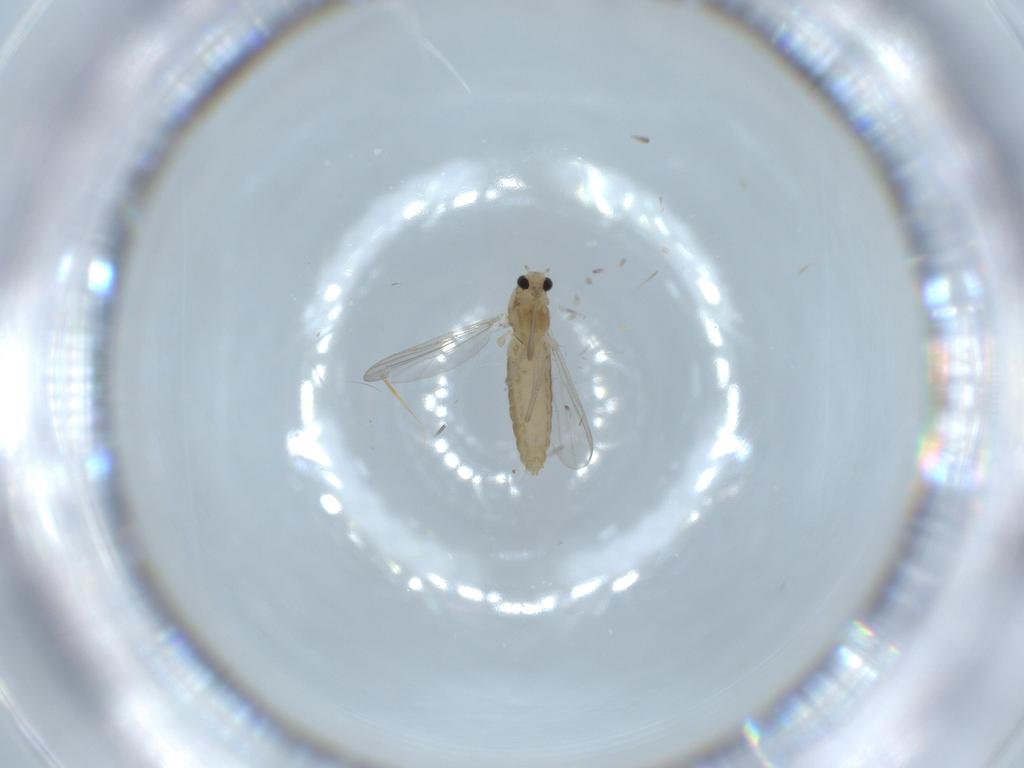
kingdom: Animalia
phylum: Arthropoda
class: Insecta
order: Diptera
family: Chironomidae
